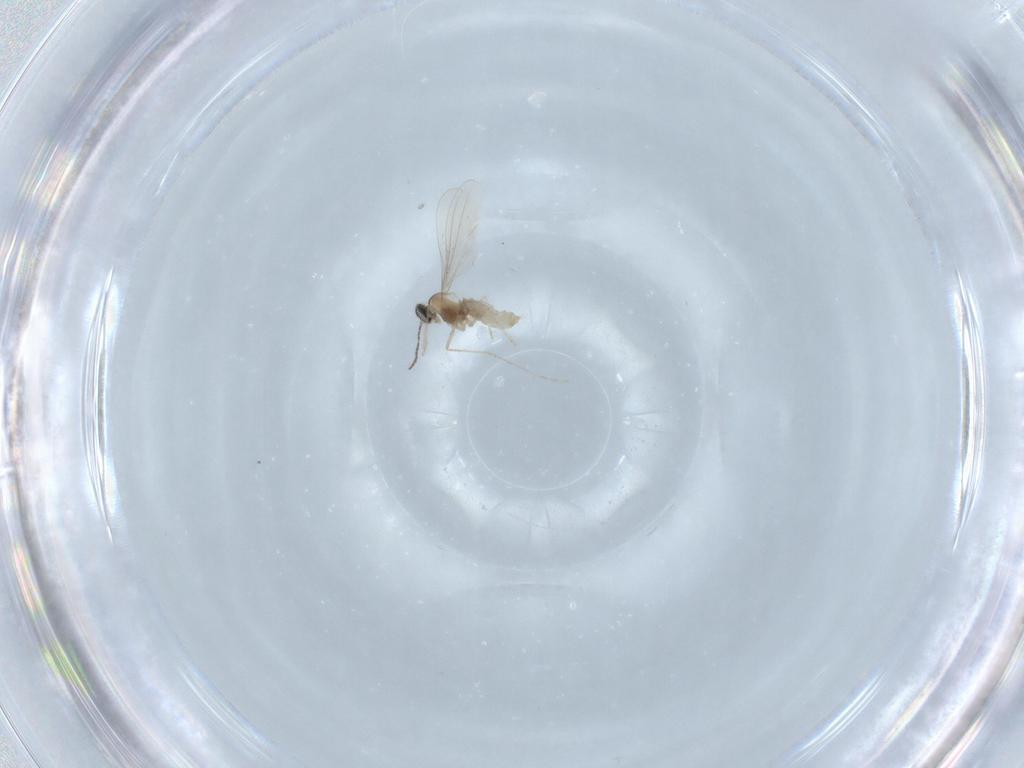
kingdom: Animalia
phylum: Arthropoda
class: Insecta
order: Diptera
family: Cecidomyiidae
